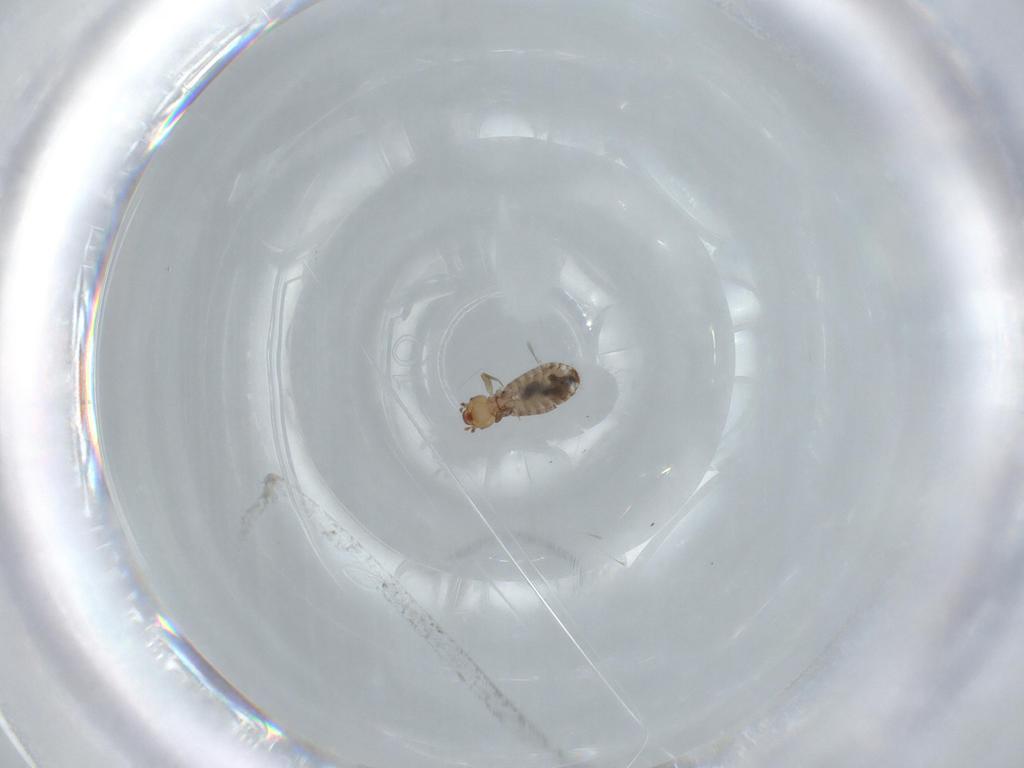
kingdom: Animalia
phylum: Arthropoda
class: Insecta
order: Psocodea
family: Liposcelididae
